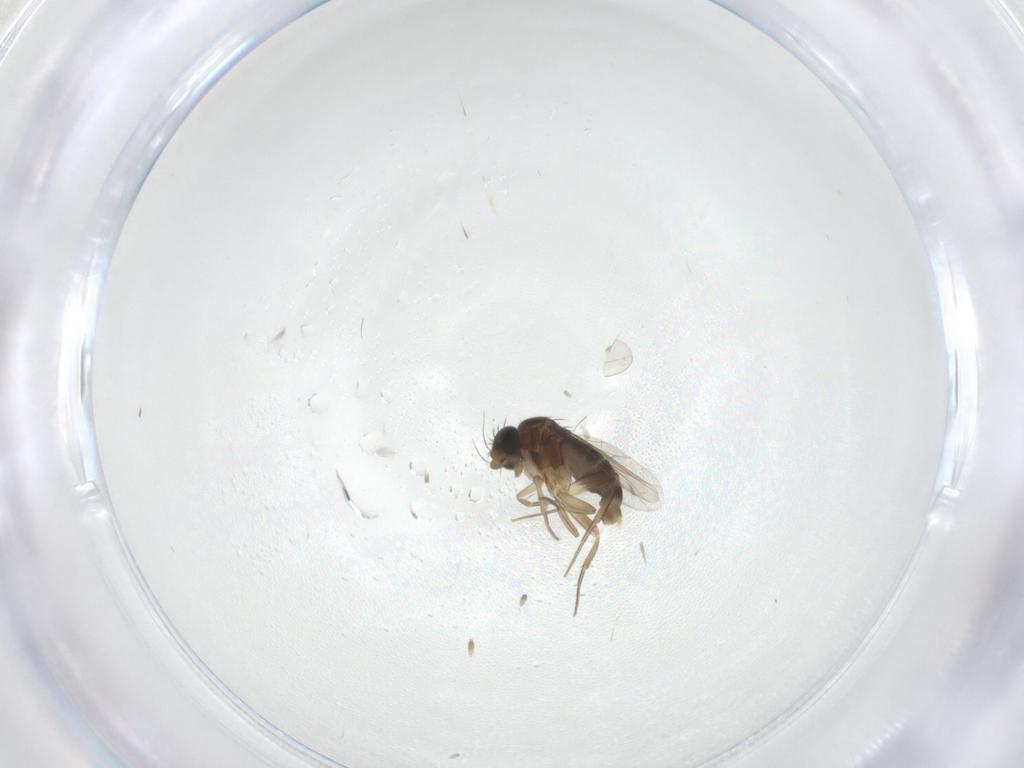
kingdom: Animalia
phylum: Arthropoda
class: Insecta
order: Diptera
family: Phoridae
